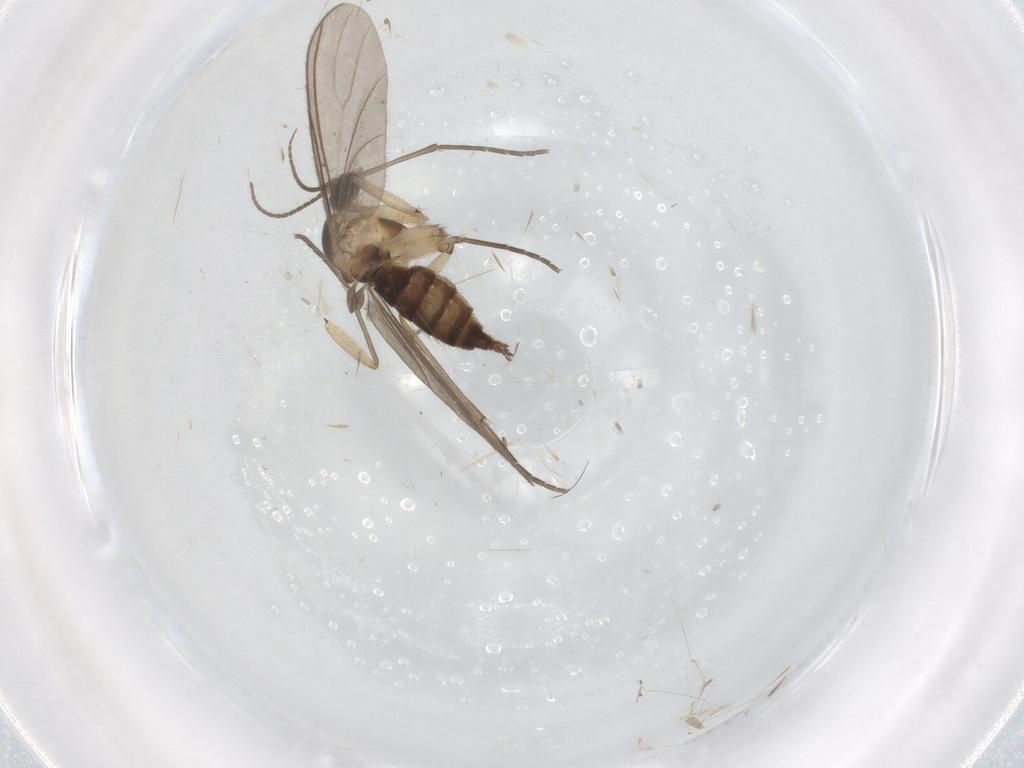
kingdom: Animalia
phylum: Arthropoda
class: Insecta
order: Diptera
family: Sciaridae
